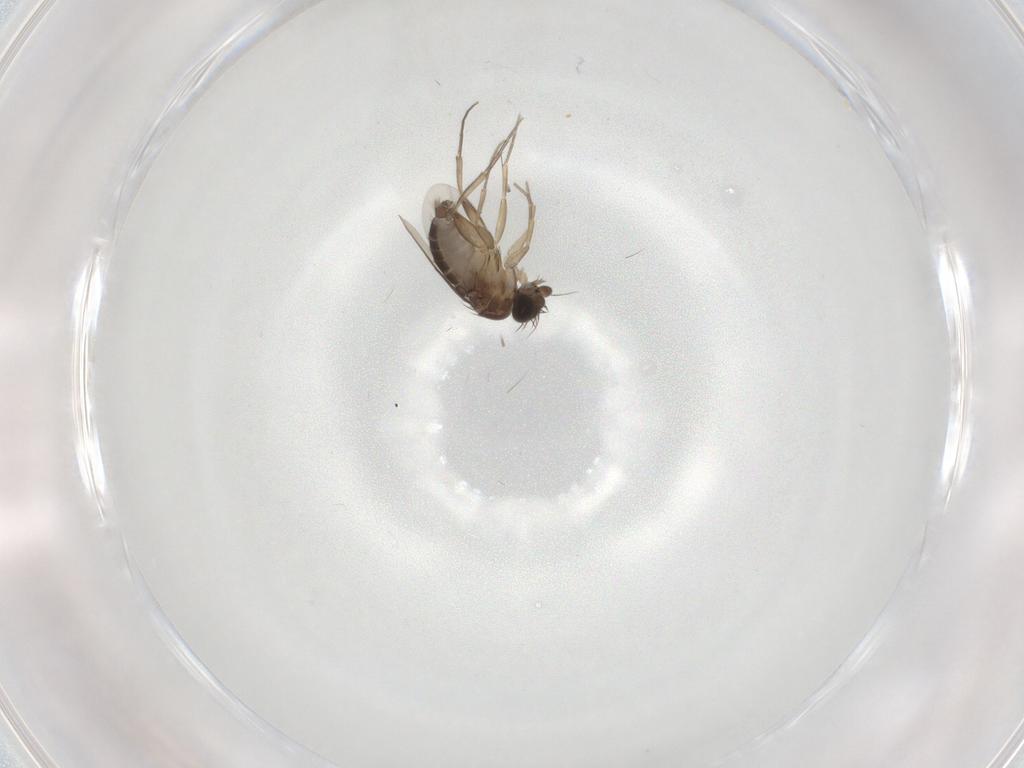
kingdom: Animalia
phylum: Arthropoda
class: Insecta
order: Diptera
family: Phoridae
